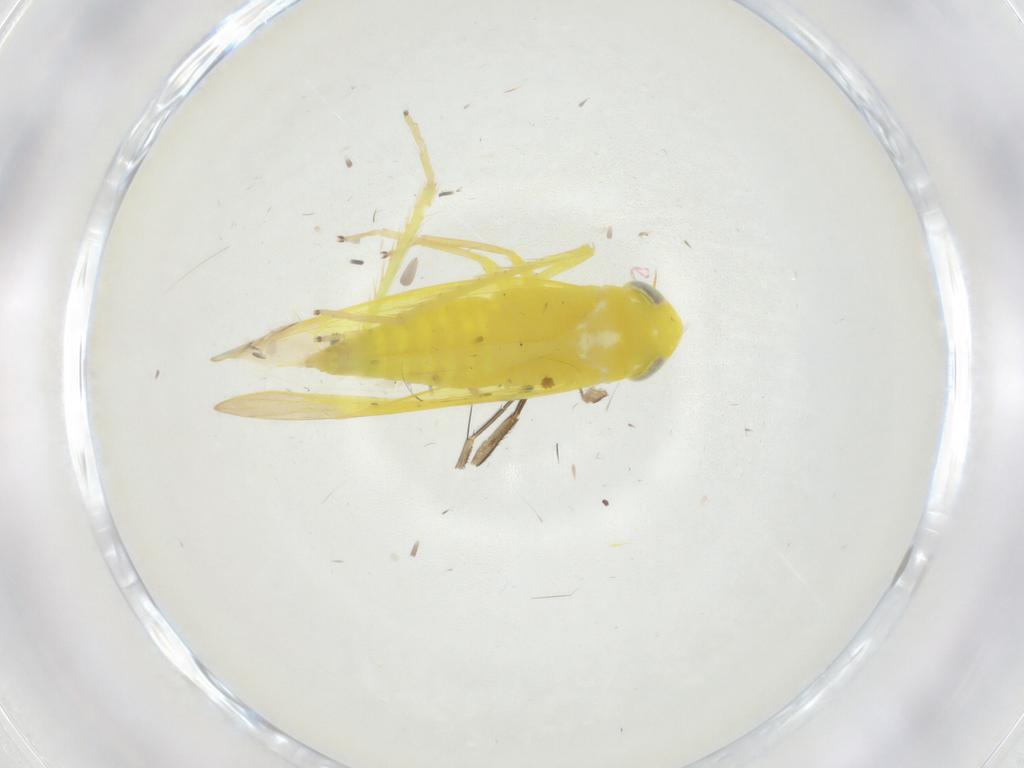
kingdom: Animalia
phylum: Arthropoda
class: Insecta
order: Hemiptera
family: Cicadellidae
